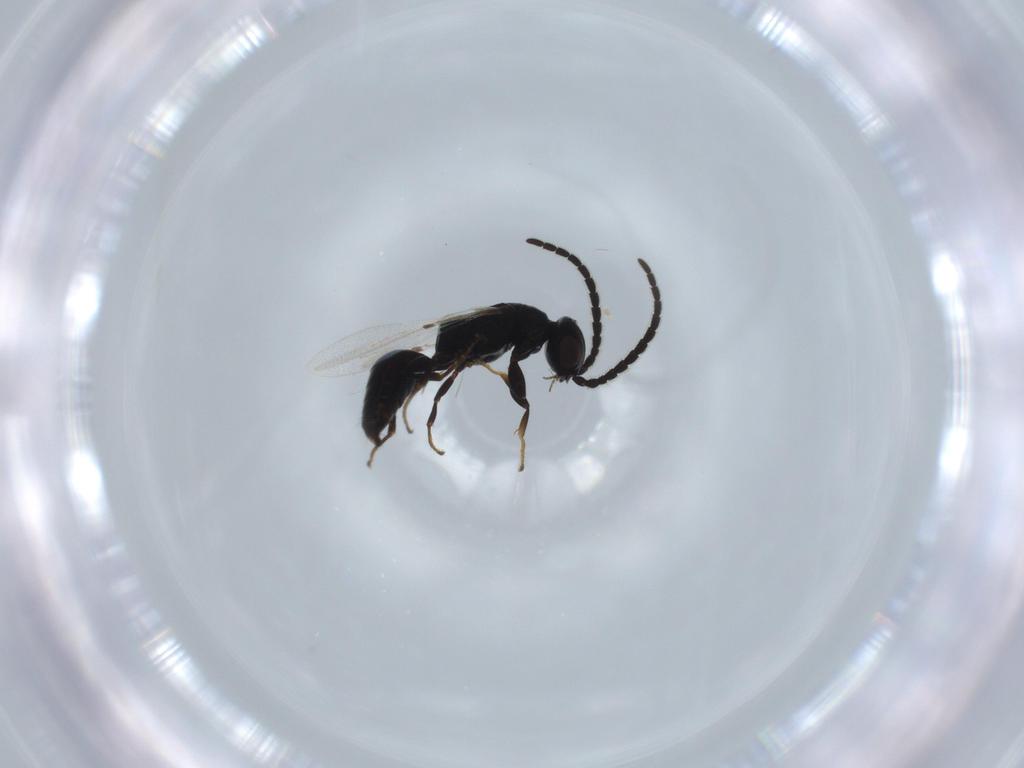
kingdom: Animalia
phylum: Arthropoda
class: Insecta
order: Hymenoptera
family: Bethylidae
